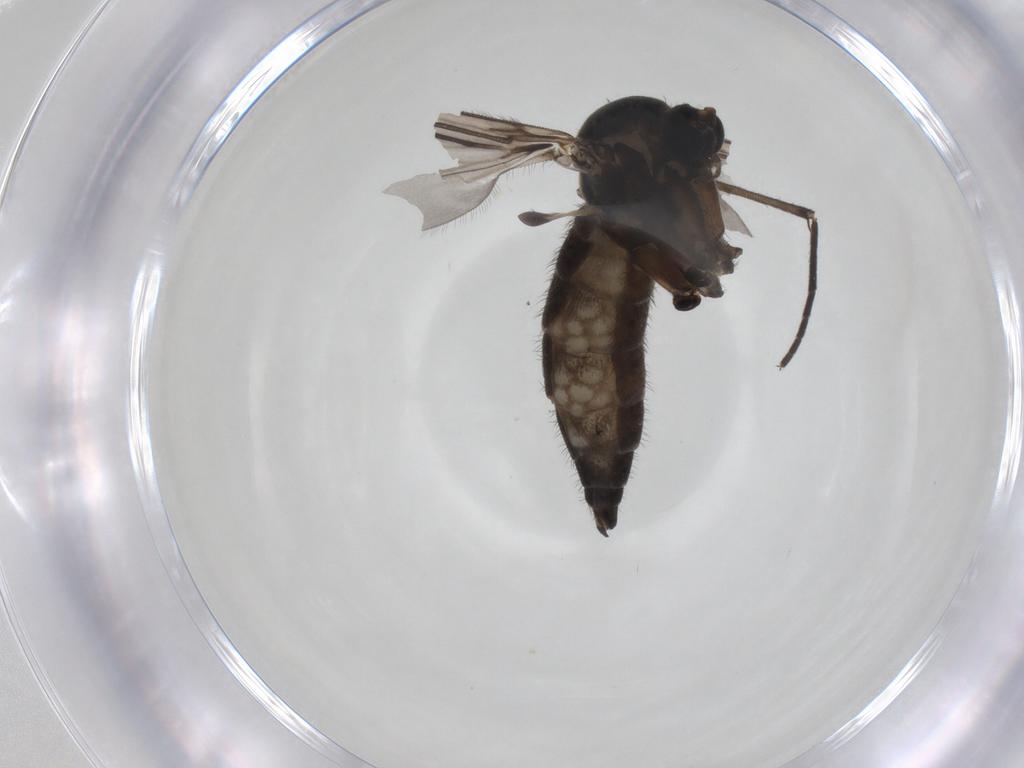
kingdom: Animalia
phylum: Arthropoda
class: Insecta
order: Diptera
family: Sciaridae
